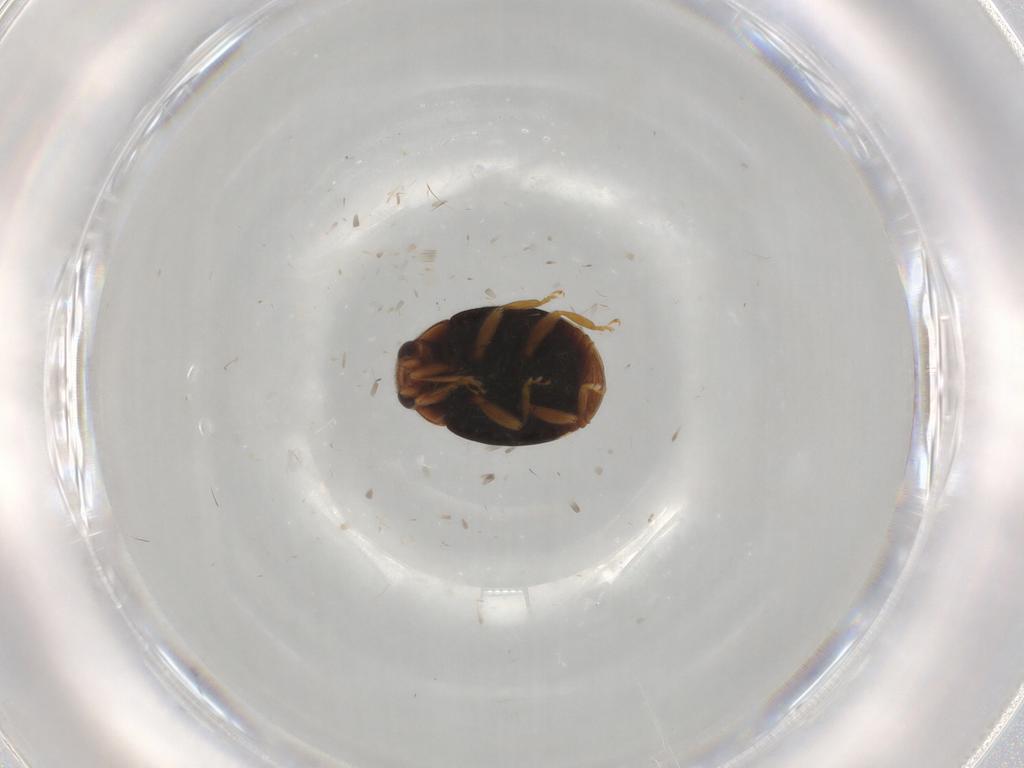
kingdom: Animalia
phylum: Arthropoda
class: Insecta
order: Coleoptera
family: Coccinellidae
